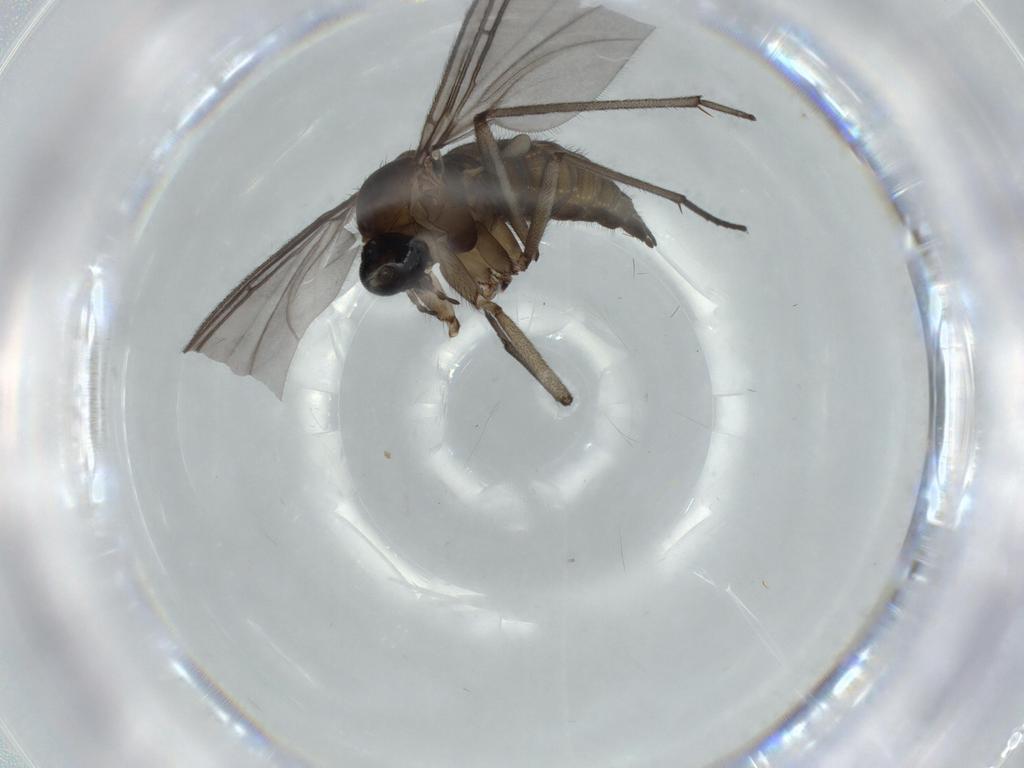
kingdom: Animalia
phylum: Arthropoda
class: Insecta
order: Diptera
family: Sciaridae
